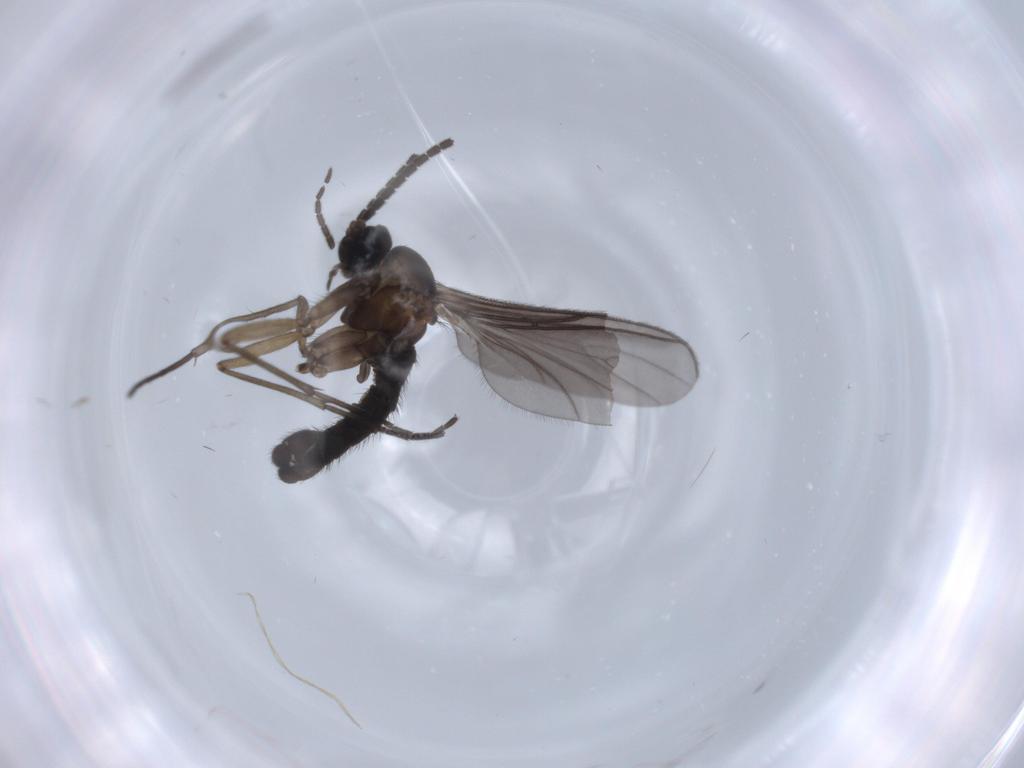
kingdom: Animalia
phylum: Arthropoda
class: Insecta
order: Diptera
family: Sciaridae
